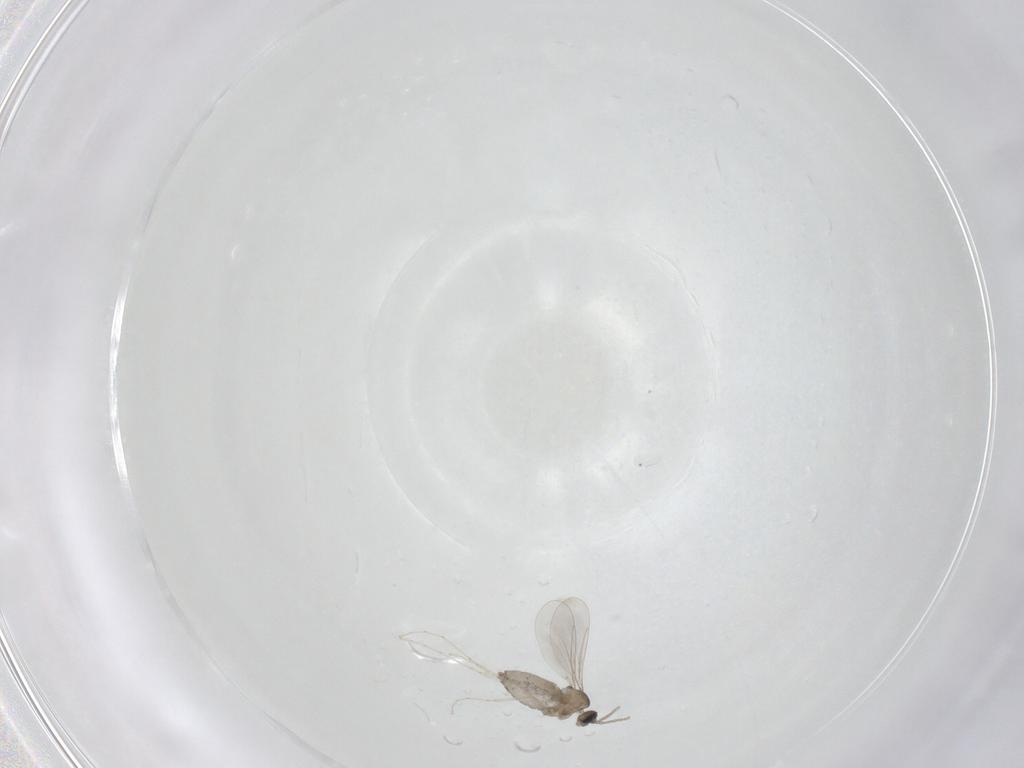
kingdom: Animalia
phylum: Arthropoda
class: Insecta
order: Diptera
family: Cecidomyiidae
